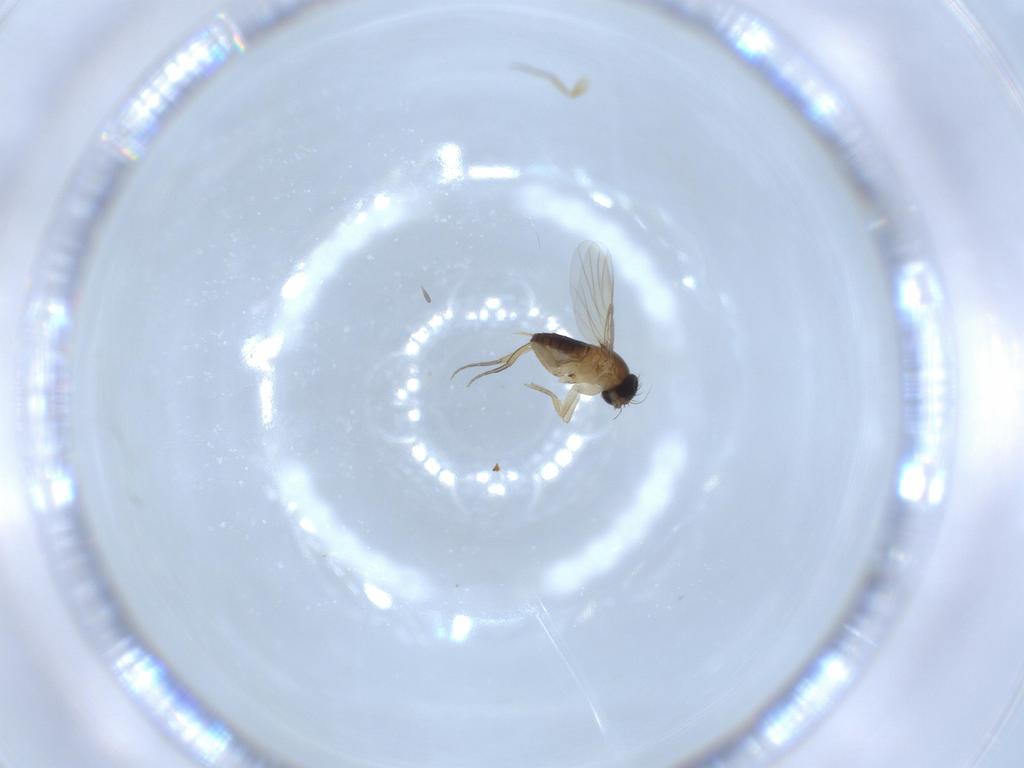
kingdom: Animalia
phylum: Arthropoda
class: Insecta
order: Diptera
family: Phoridae
